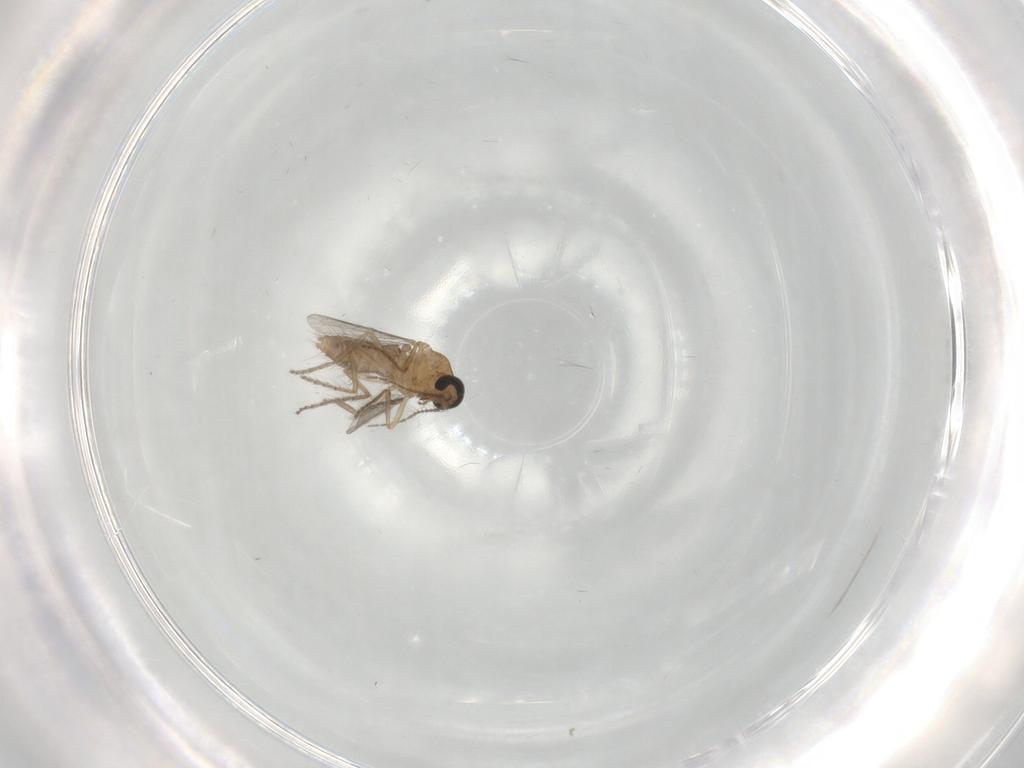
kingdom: Animalia
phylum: Arthropoda
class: Insecta
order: Diptera
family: Ceratopogonidae
